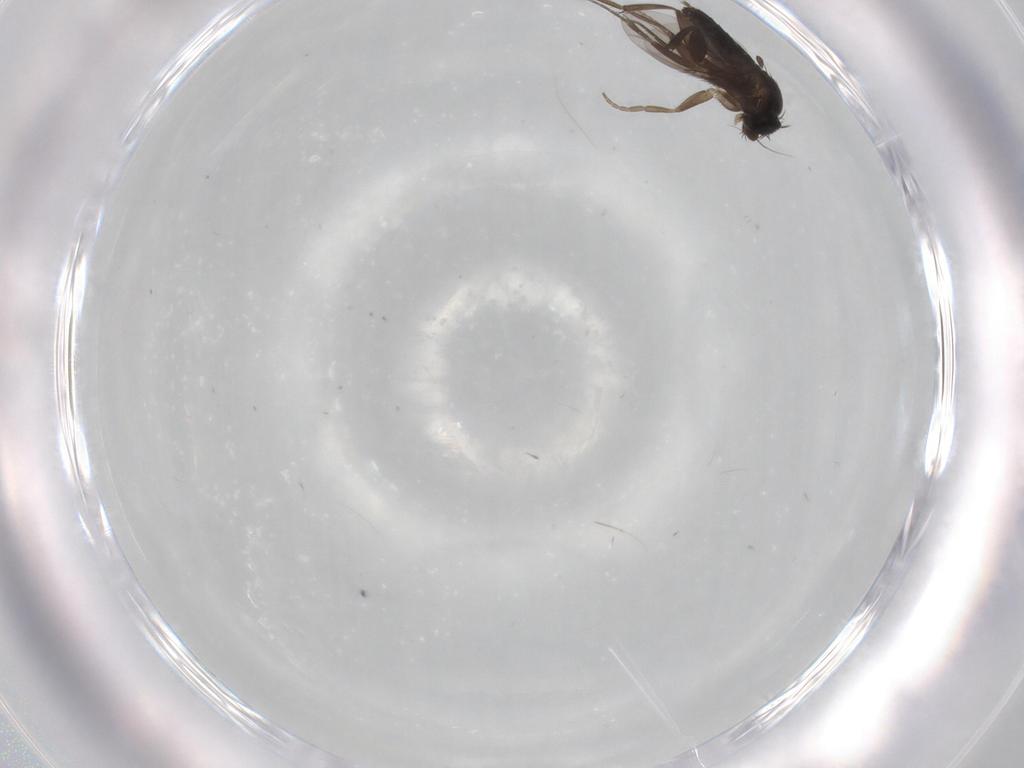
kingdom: Animalia
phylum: Arthropoda
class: Insecta
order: Diptera
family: Phoridae
